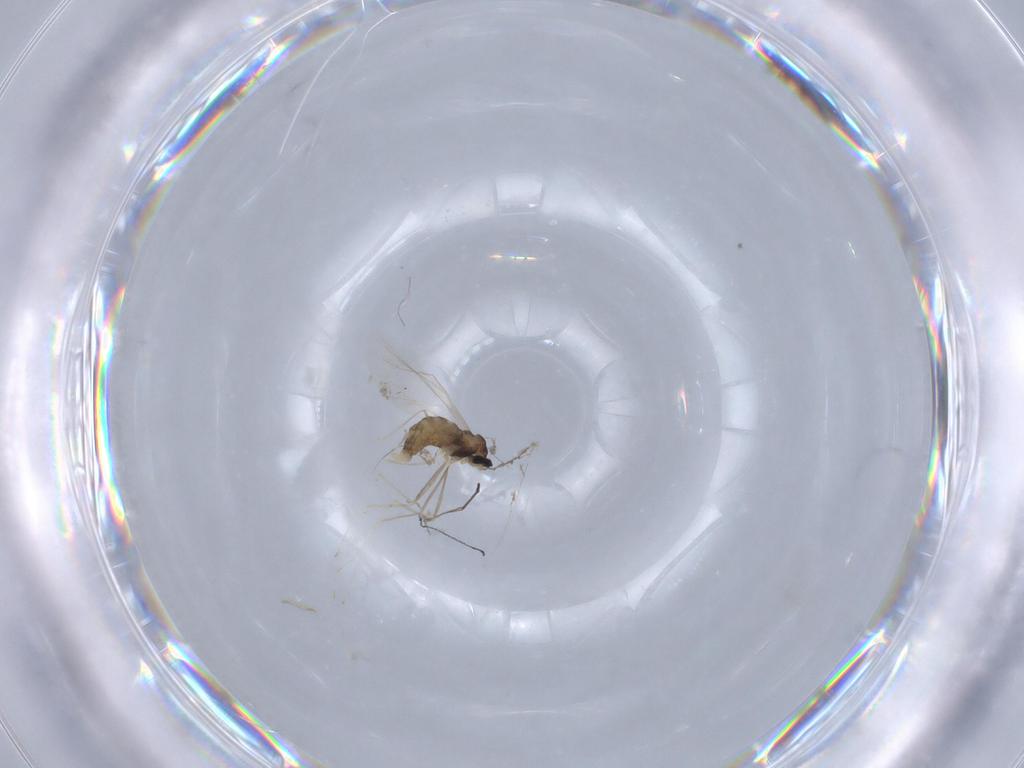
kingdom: Animalia
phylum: Arthropoda
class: Insecta
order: Diptera
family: Cecidomyiidae
